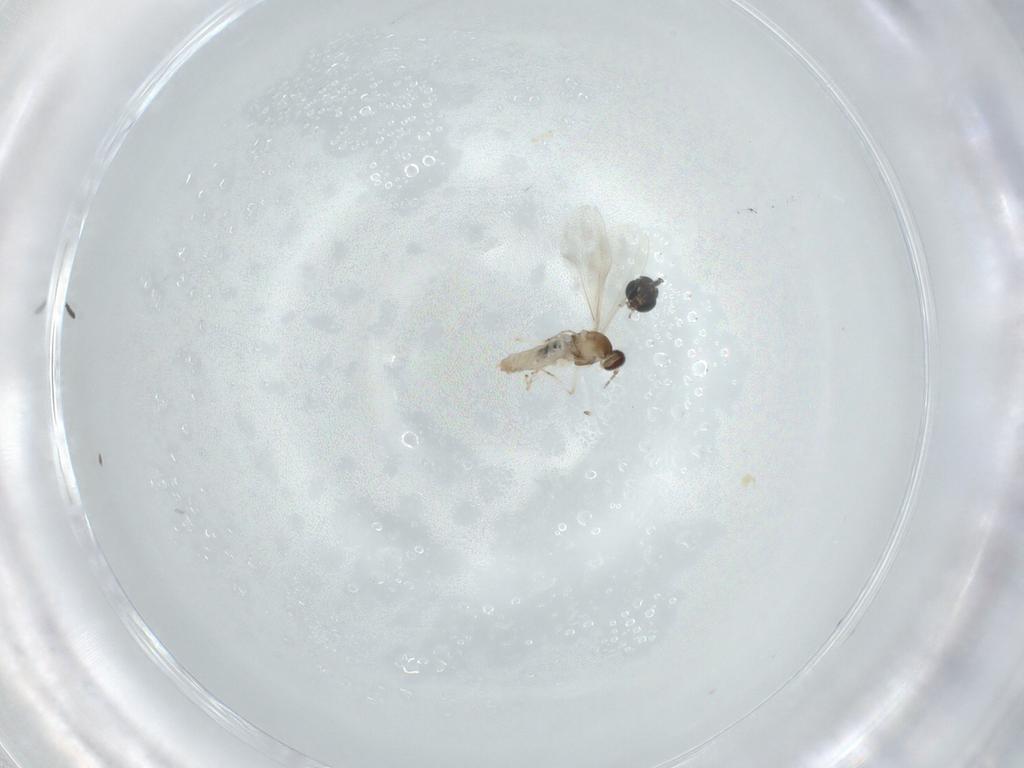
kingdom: Animalia
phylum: Arthropoda
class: Insecta
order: Diptera
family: Cecidomyiidae
